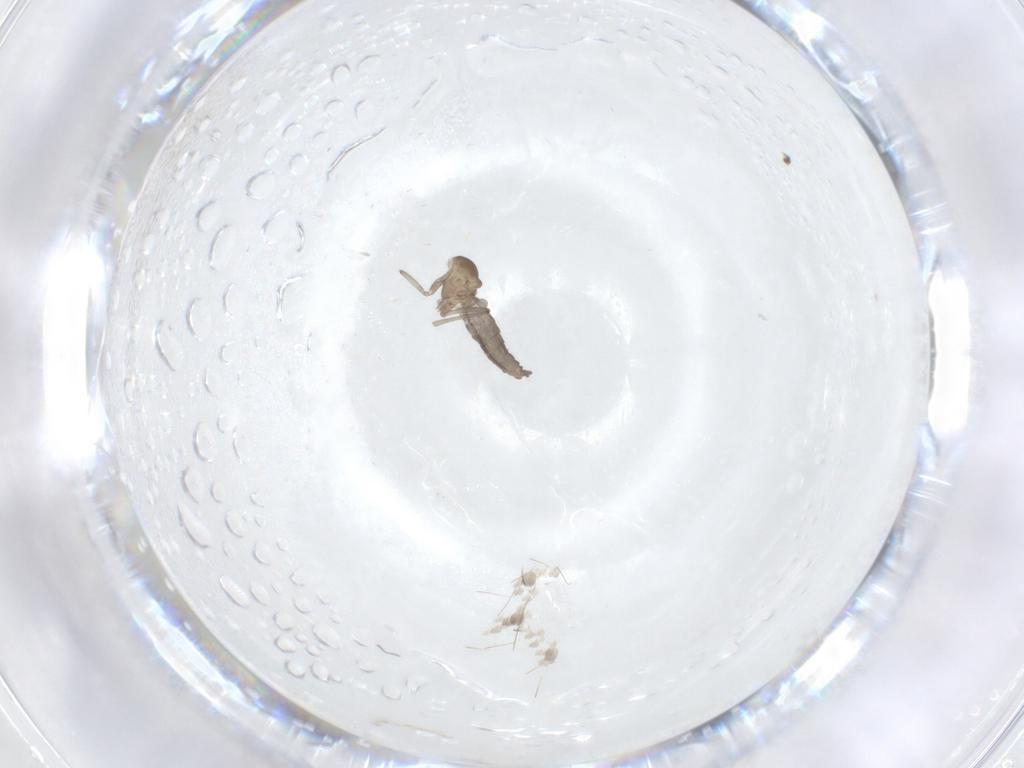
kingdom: Animalia
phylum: Arthropoda
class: Insecta
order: Diptera
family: Cecidomyiidae
